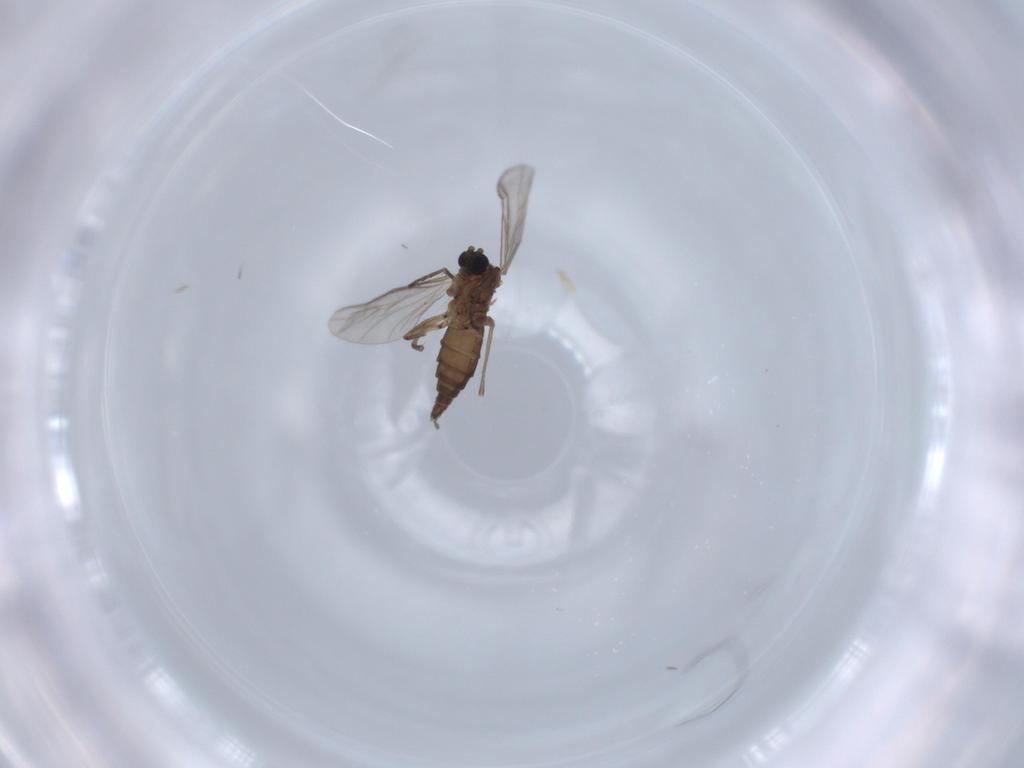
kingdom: Animalia
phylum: Arthropoda
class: Insecta
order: Diptera
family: Sciaridae
